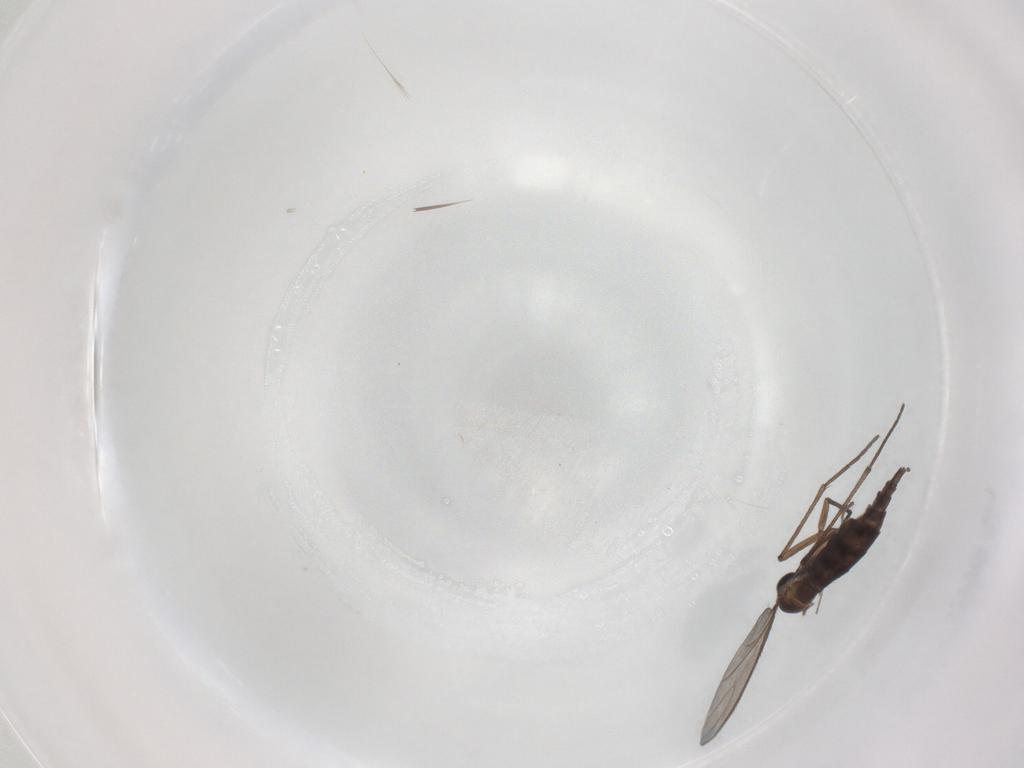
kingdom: Animalia
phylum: Arthropoda
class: Insecta
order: Diptera
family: Sciaridae
